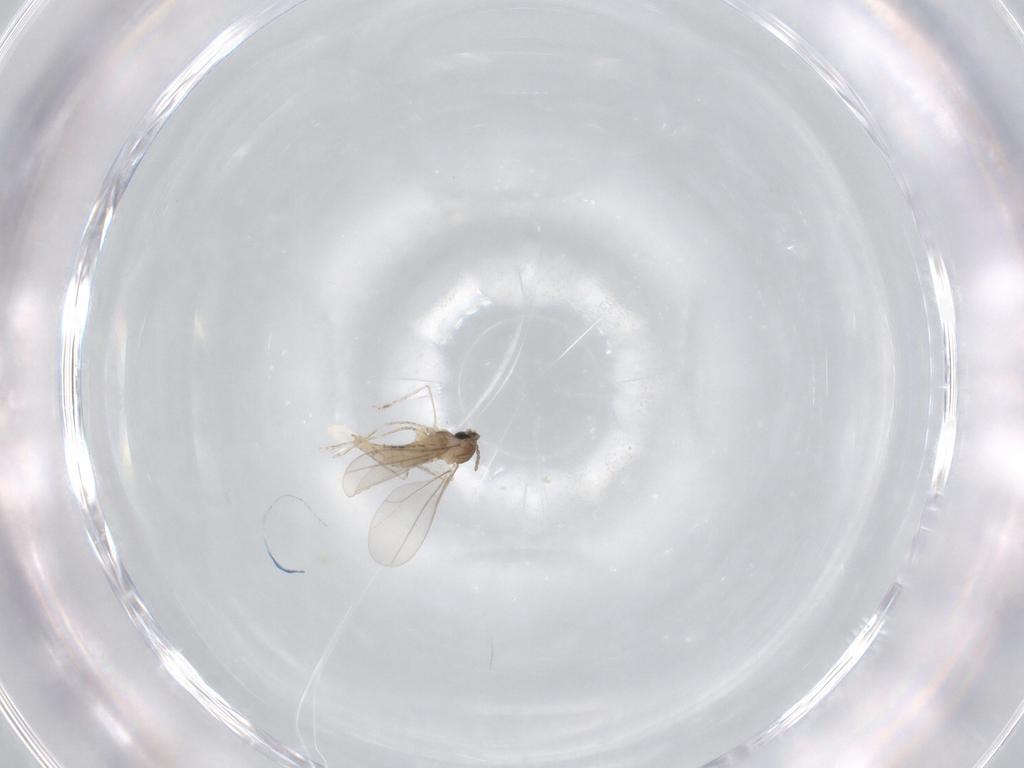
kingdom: Animalia
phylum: Arthropoda
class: Insecta
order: Diptera
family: Cecidomyiidae
